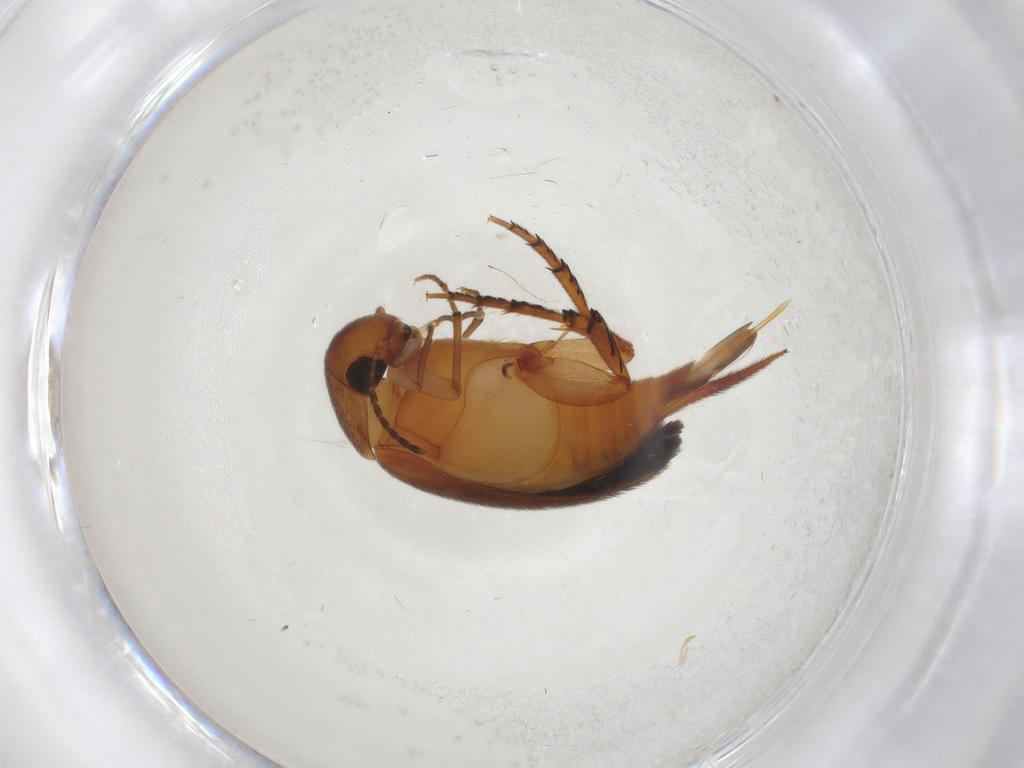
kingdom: Animalia
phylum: Arthropoda
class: Insecta
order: Coleoptera
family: Mordellidae
